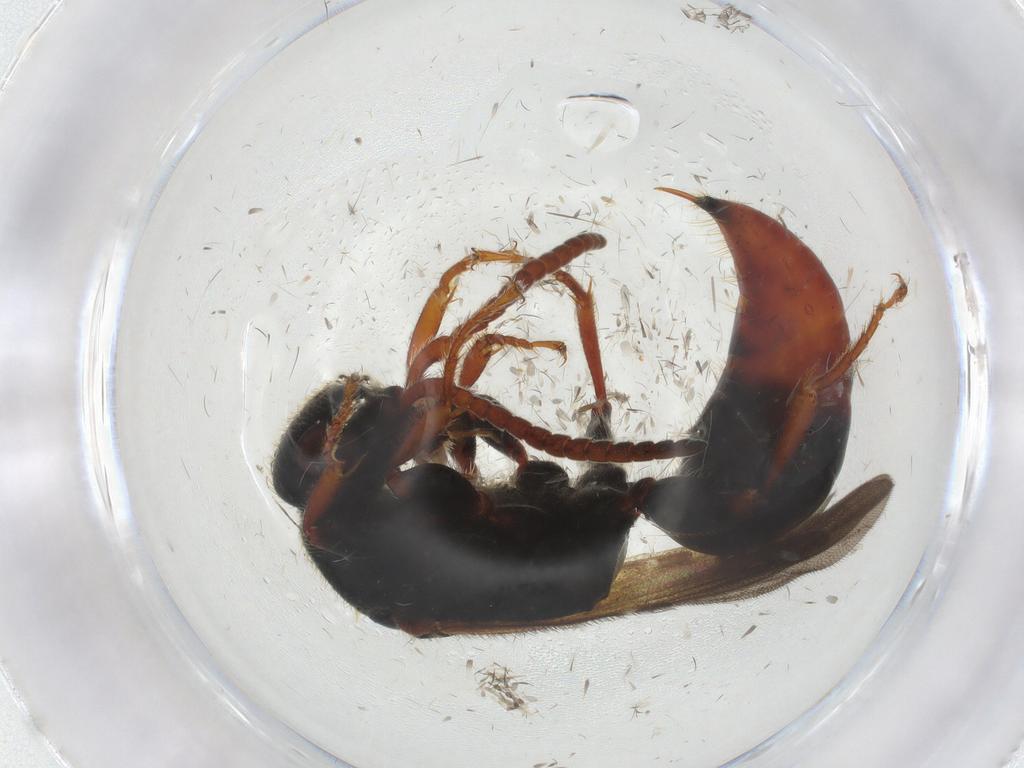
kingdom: Animalia
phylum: Arthropoda
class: Insecta
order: Hymenoptera
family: Bethylidae
